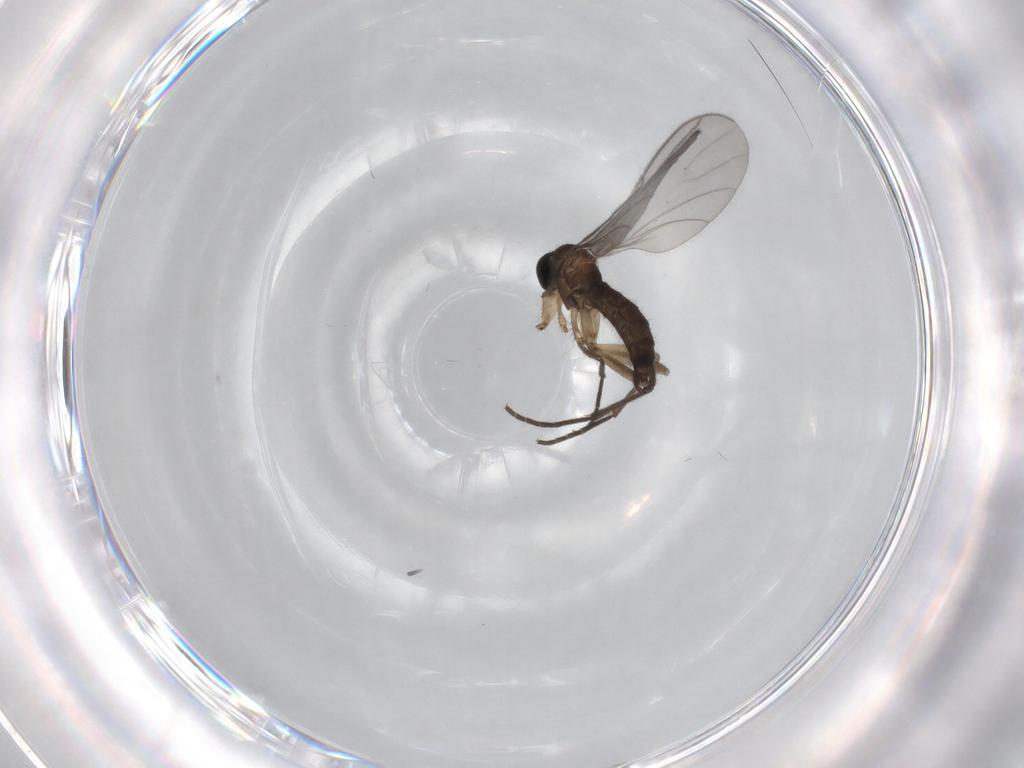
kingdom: Animalia
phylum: Arthropoda
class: Insecta
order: Diptera
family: Sciaridae
